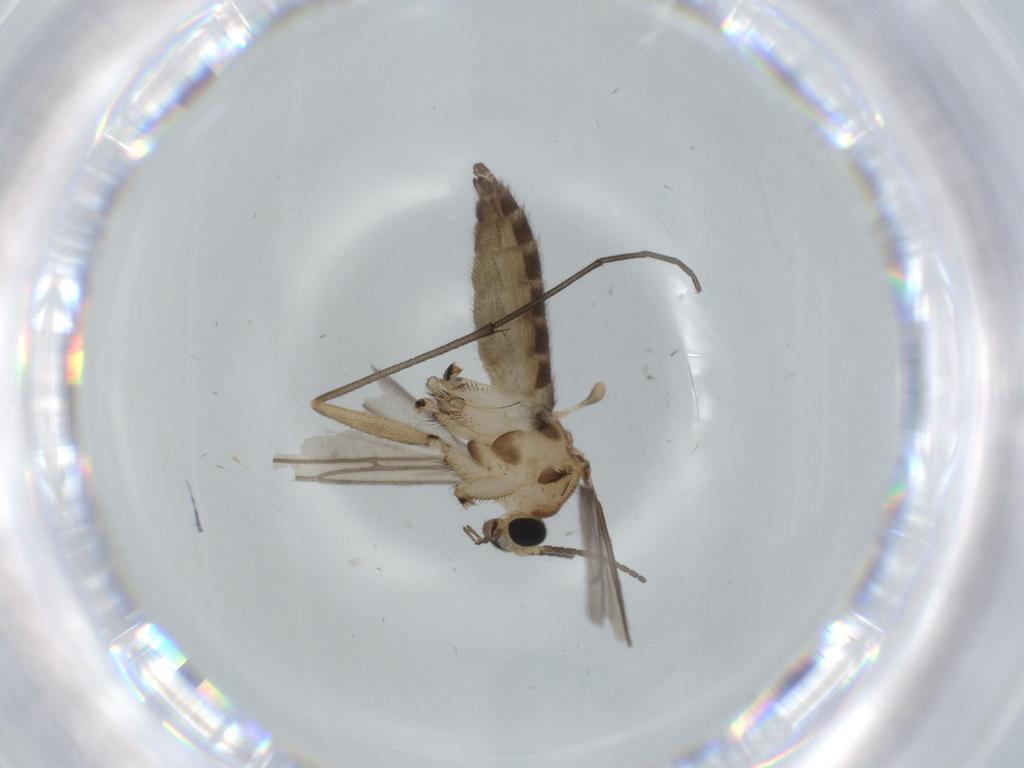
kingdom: Animalia
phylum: Arthropoda
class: Insecta
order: Diptera
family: Sciaridae
